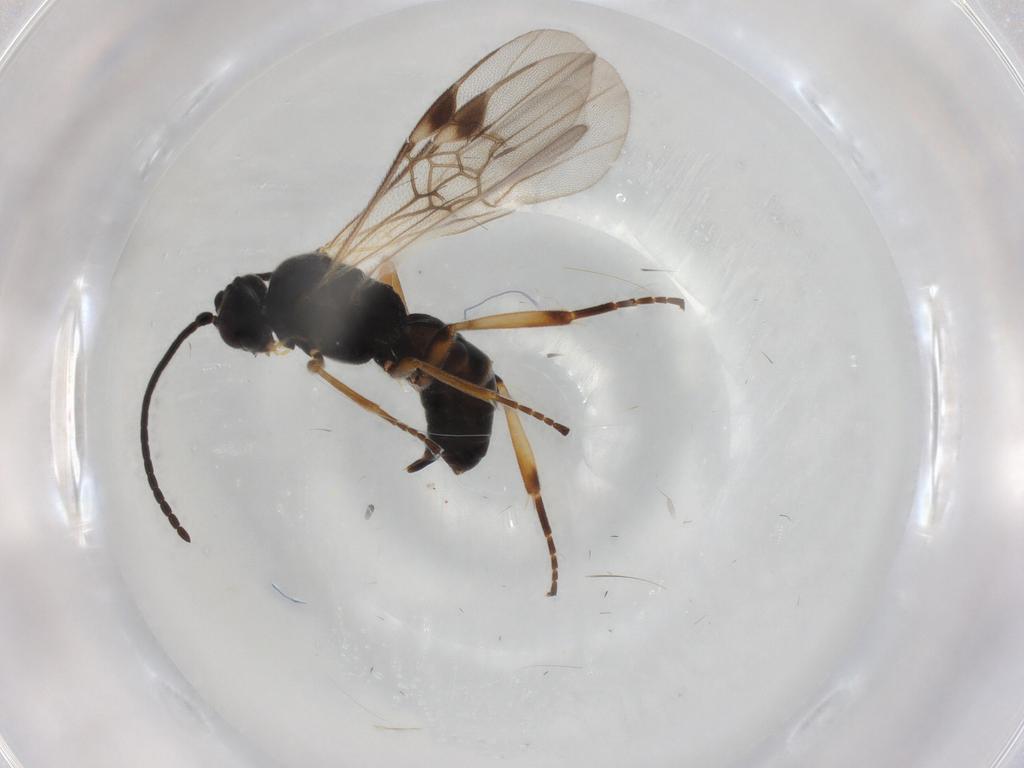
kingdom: Animalia
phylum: Arthropoda
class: Insecta
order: Hymenoptera
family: Braconidae
